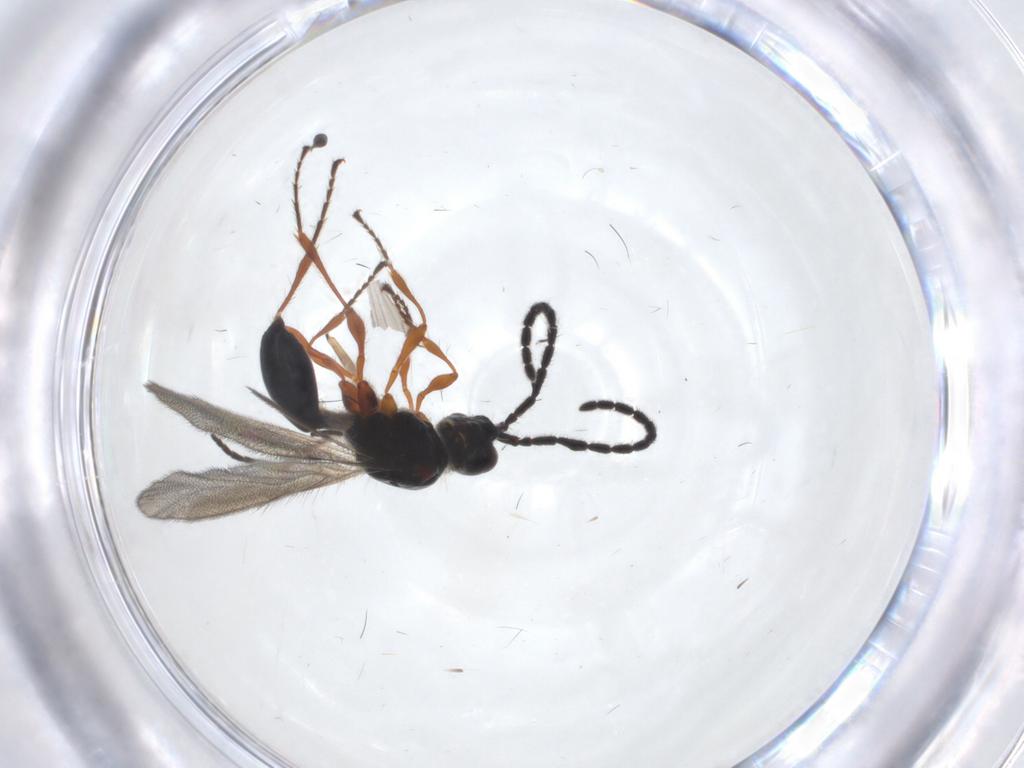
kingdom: Animalia
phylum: Arthropoda
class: Insecta
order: Hymenoptera
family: Diapriidae
